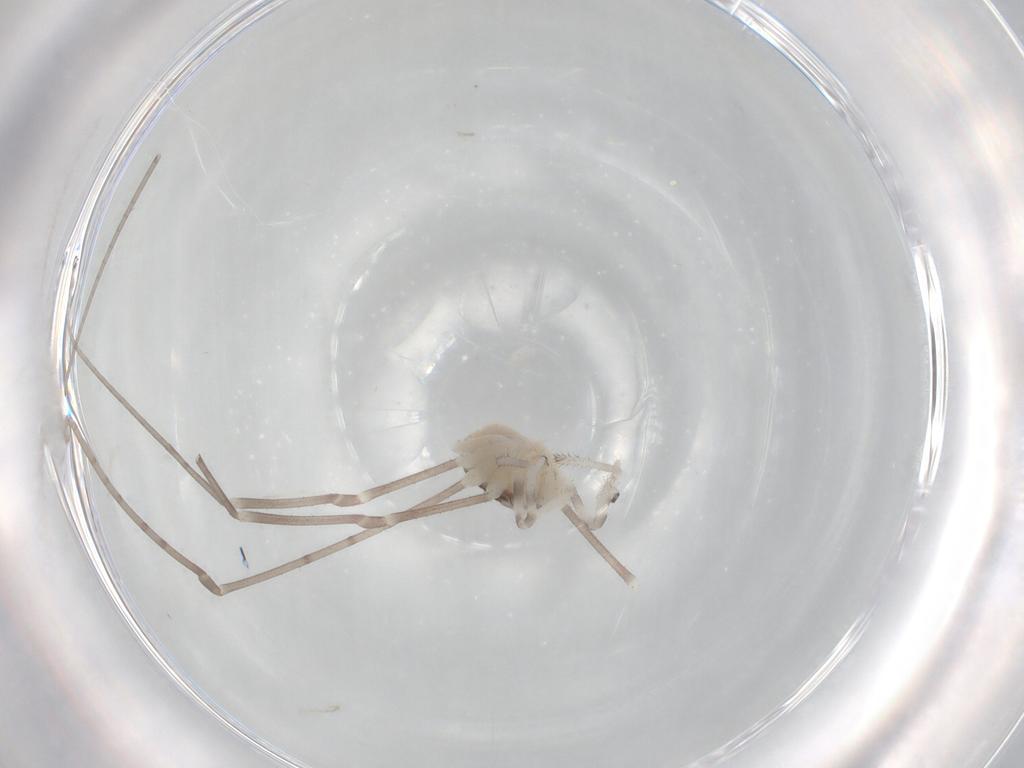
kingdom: Animalia
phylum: Arthropoda
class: Arachnida
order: Opiliones
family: Sclerosomatidae
